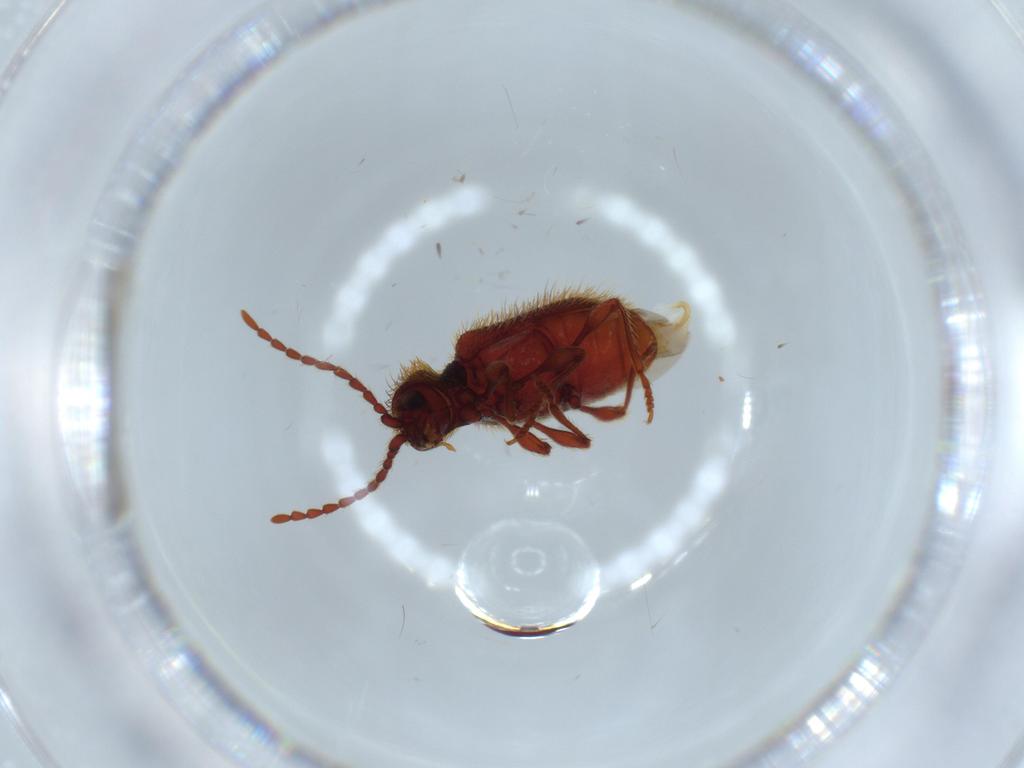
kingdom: Animalia
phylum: Arthropoda
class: Insecta
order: Coleoptera
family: Ptinidae
